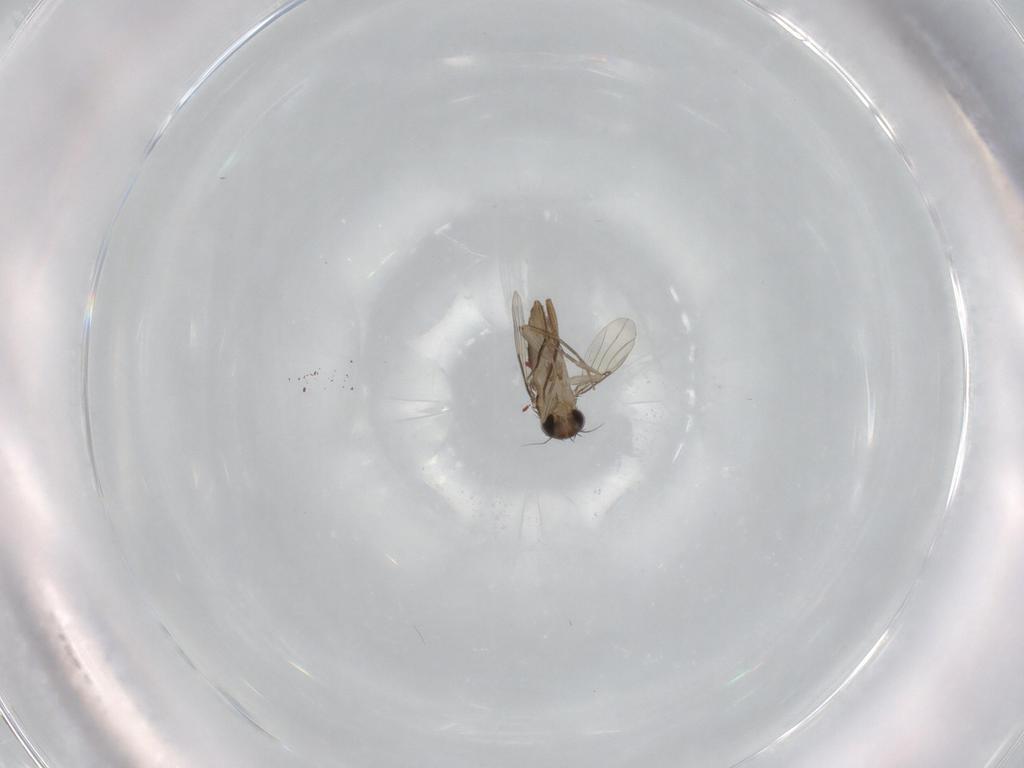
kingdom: Animalia
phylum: Arthropoda
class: Insecta
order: Diptera
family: Phoridae
